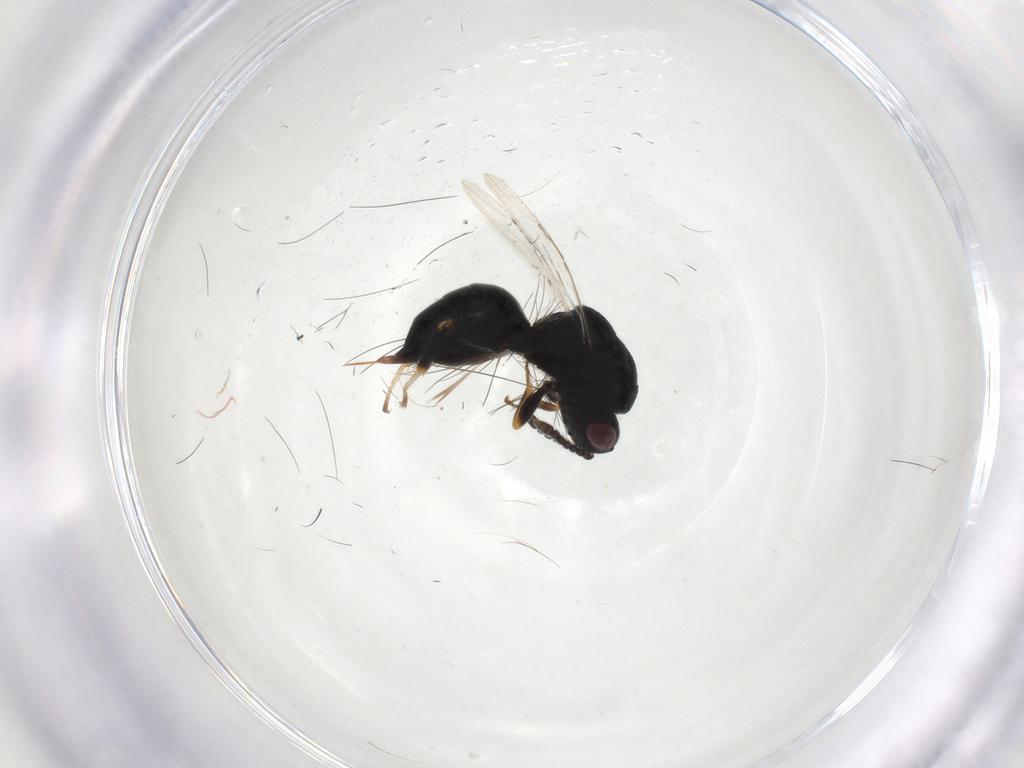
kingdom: Animalia
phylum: Arthropoda
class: Insecta
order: Hymenoptera
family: Eurytomidae
